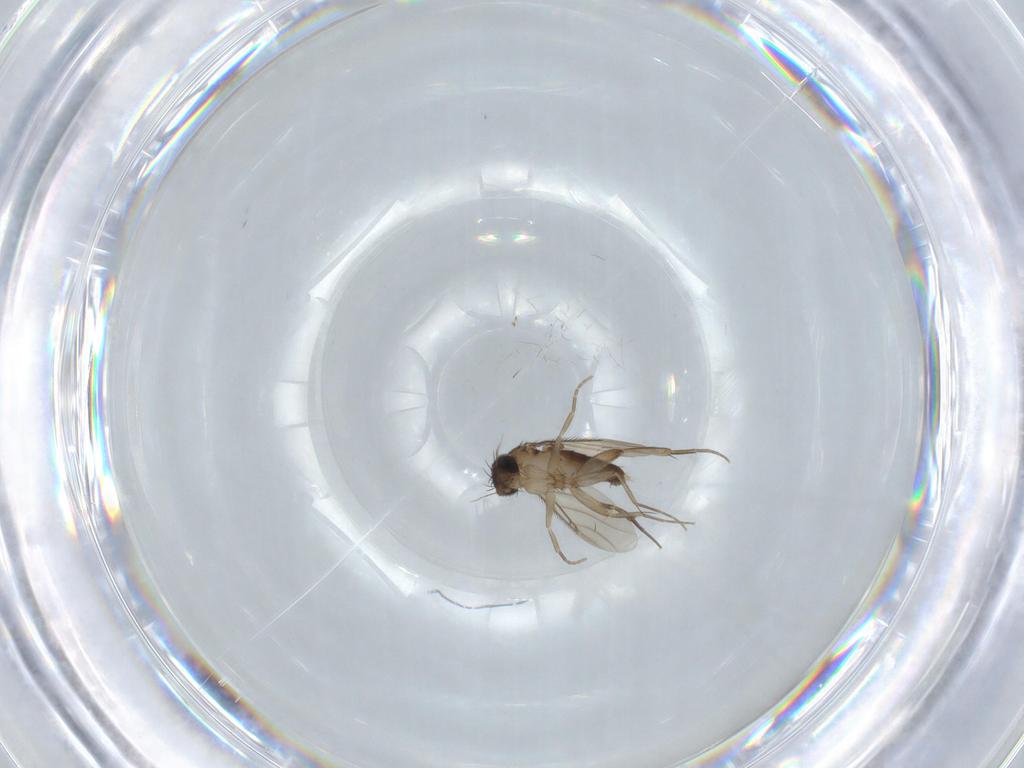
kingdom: Animalia
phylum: Arthropoda
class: Insecta
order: Diptera
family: Phoridae
